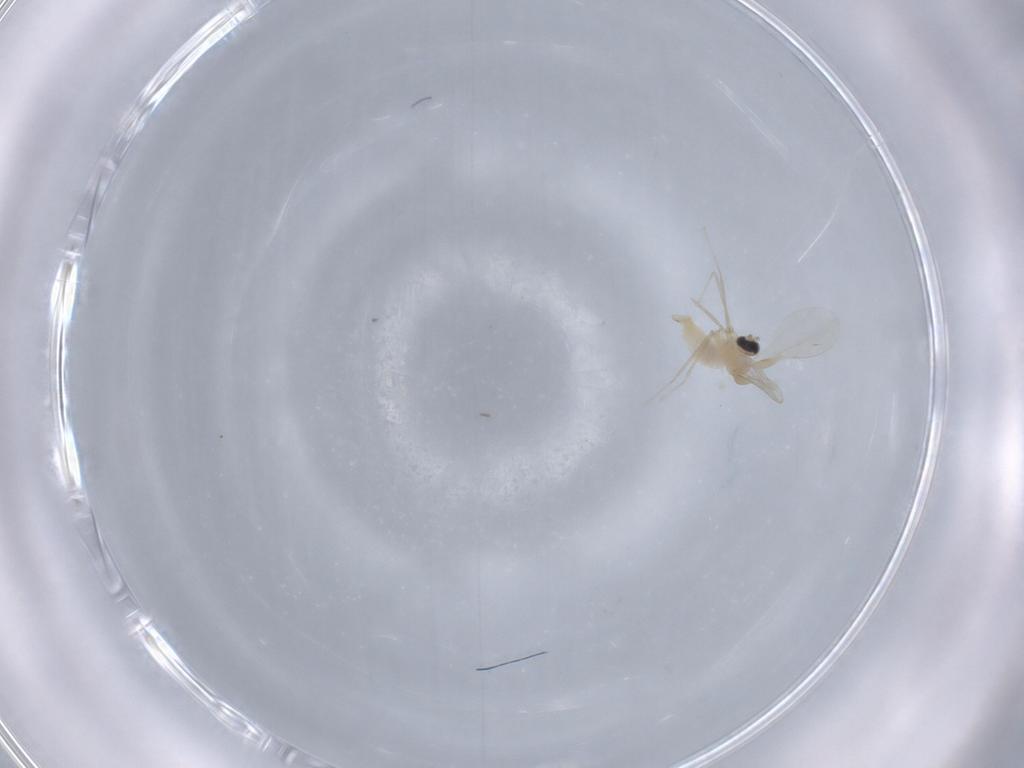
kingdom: Animalia
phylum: Arthropoda
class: Insecta
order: Diptera
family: Cecidomyiidae
